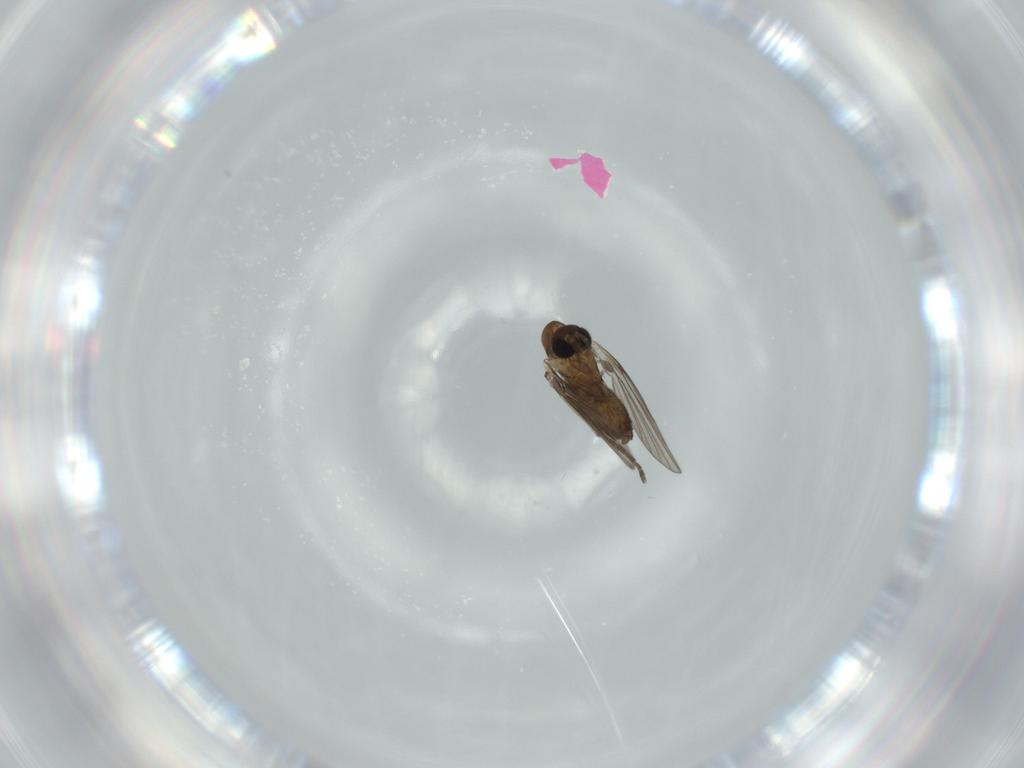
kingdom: Animalia
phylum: Arthropoda
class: Insecta
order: Diptera
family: Psychodidae
